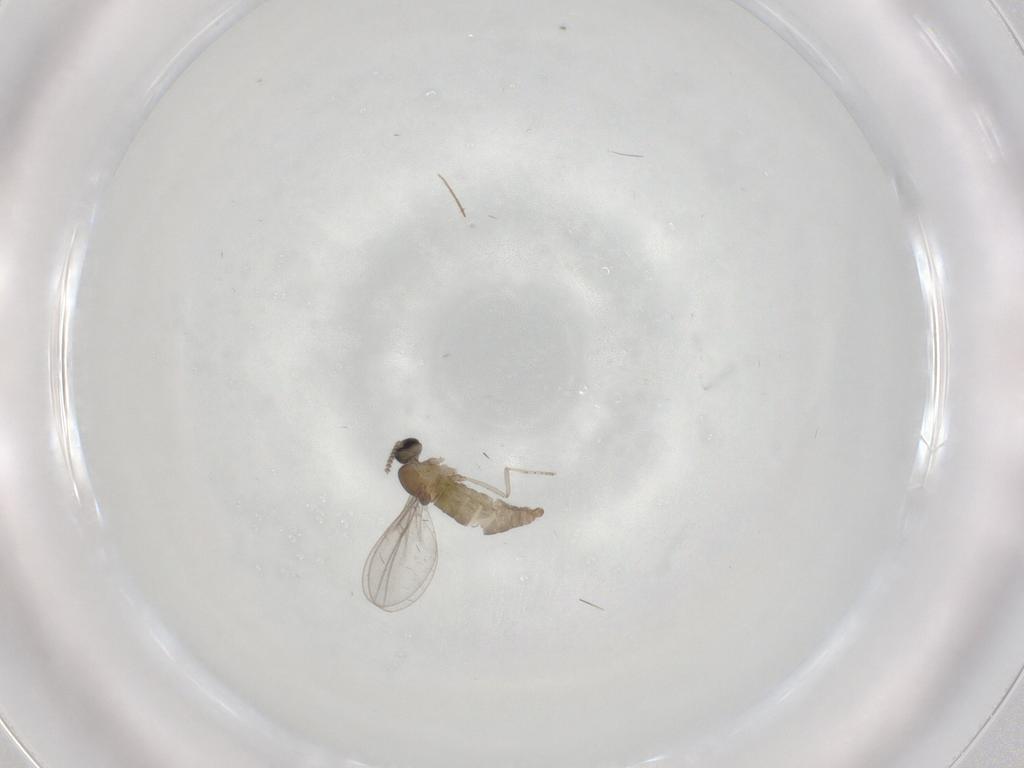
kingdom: Animalia
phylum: Arthropoda
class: Insecta
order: Diptera
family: Cecidomyiidae
